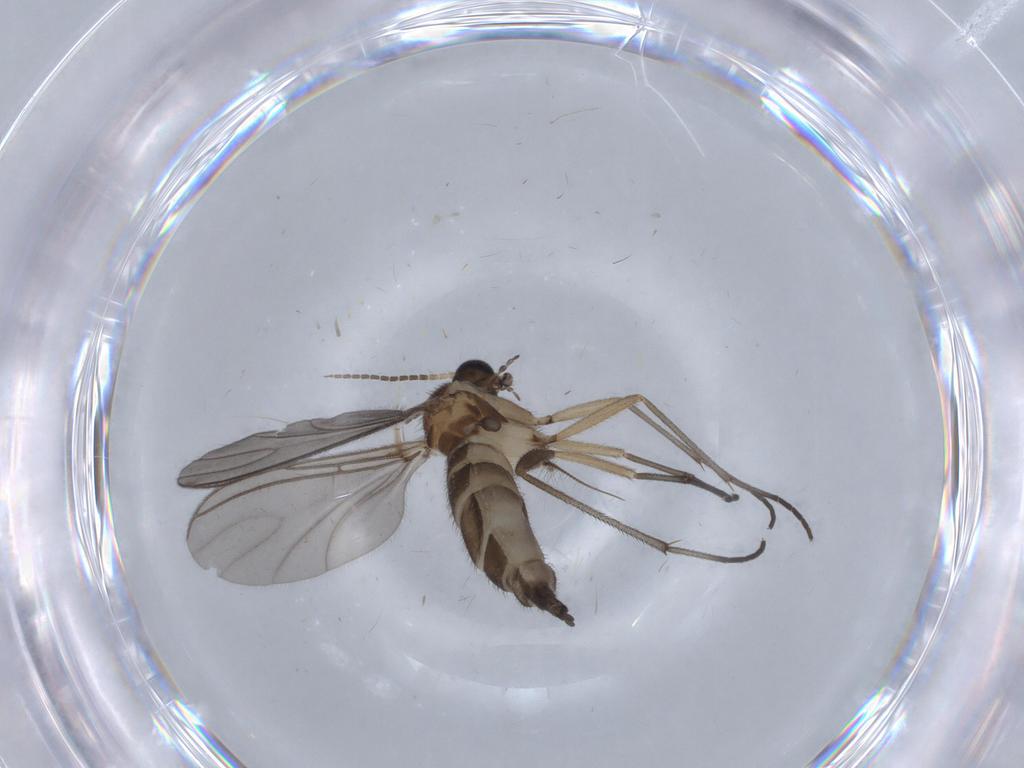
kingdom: Animalia
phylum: Arthropoda
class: Insecta
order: Diptera
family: Sciaridae
